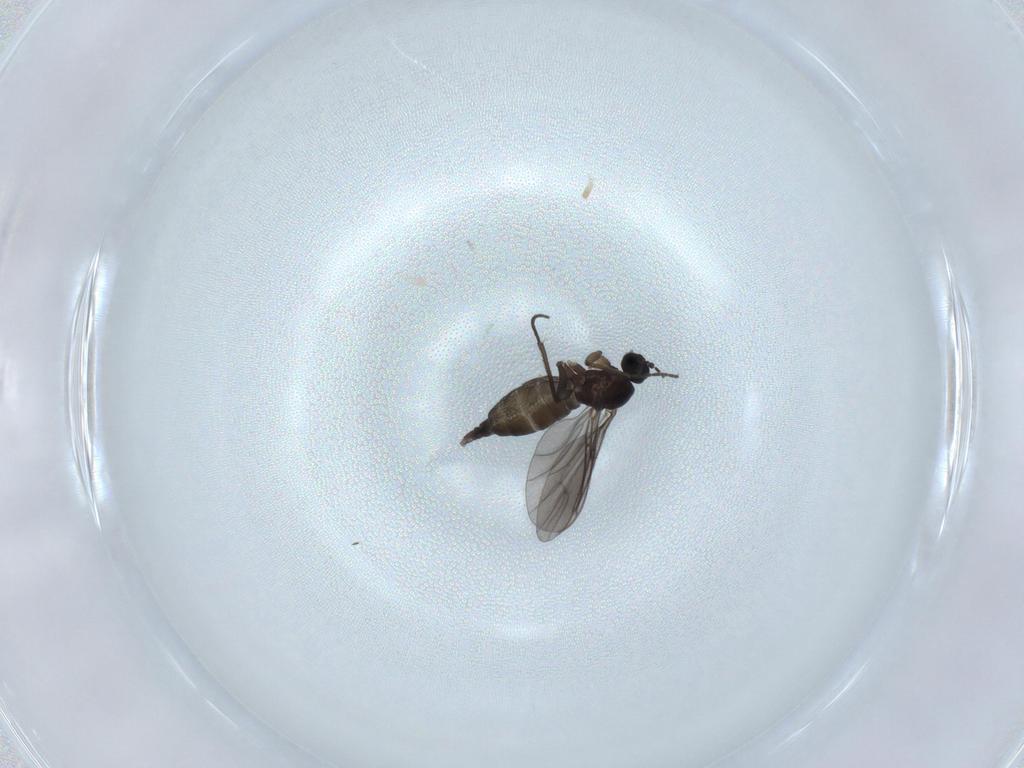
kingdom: Animalia
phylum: Arthropoda
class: Insecta
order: Diptera
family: Sciaridae
